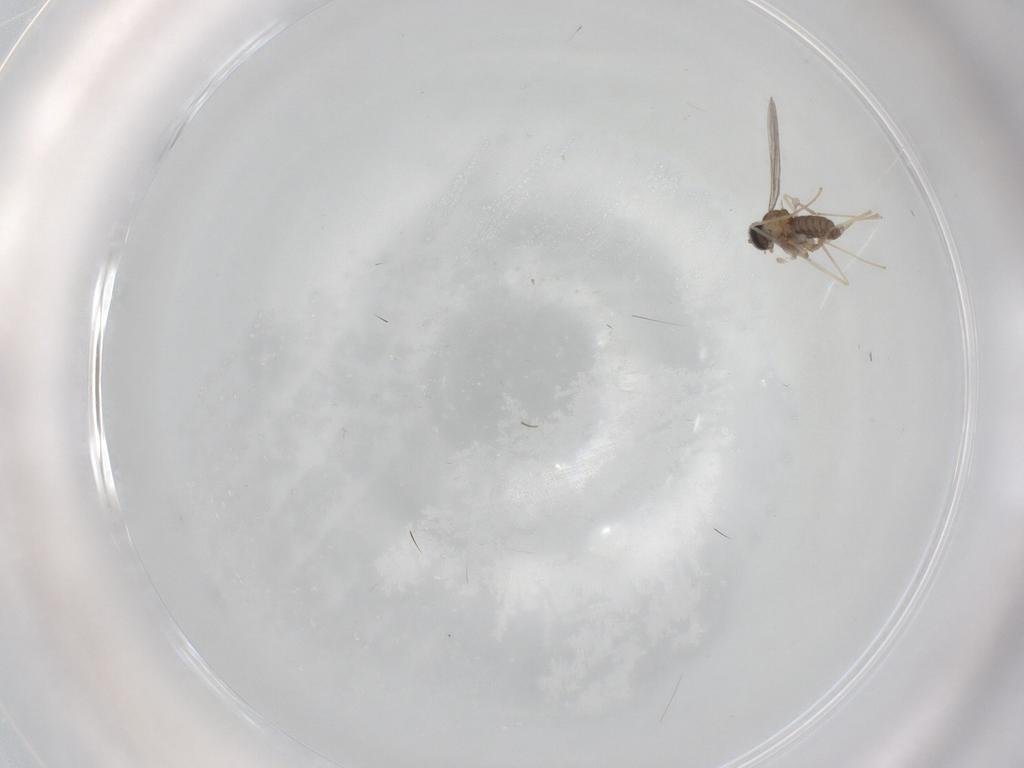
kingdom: Animalia
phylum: Arthropoda
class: Insecta
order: Diptera
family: Cecidomyiidae
